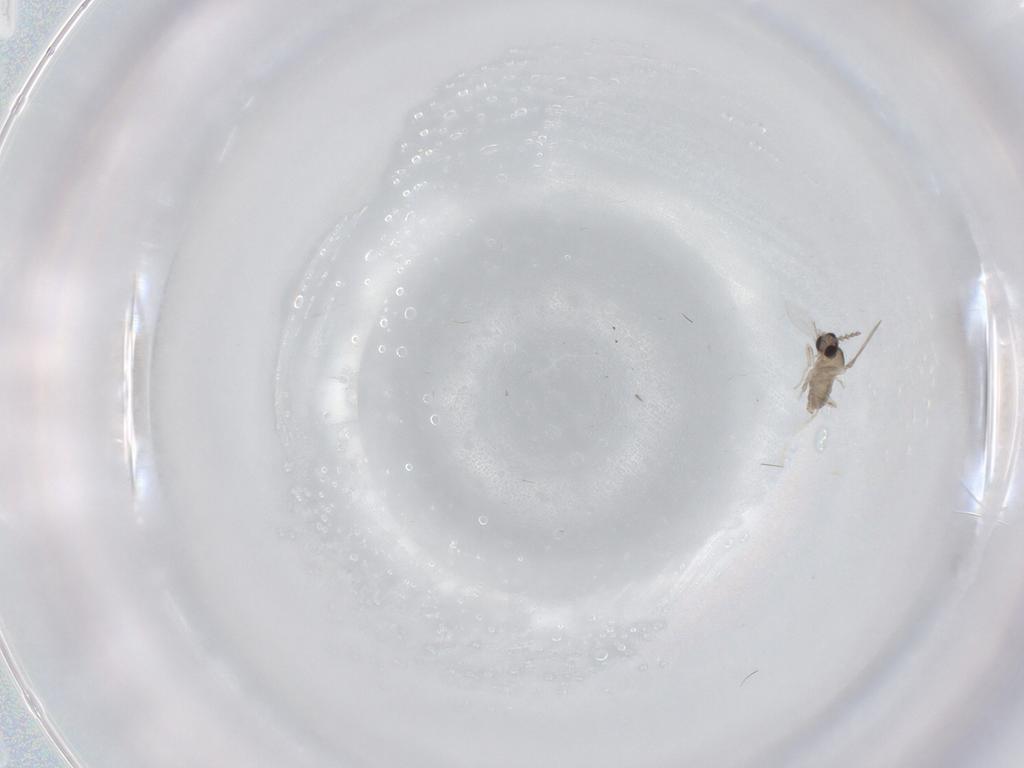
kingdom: Animalia
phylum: Arthropoda
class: Insecta
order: Diptera
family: Cecidomyiidae
